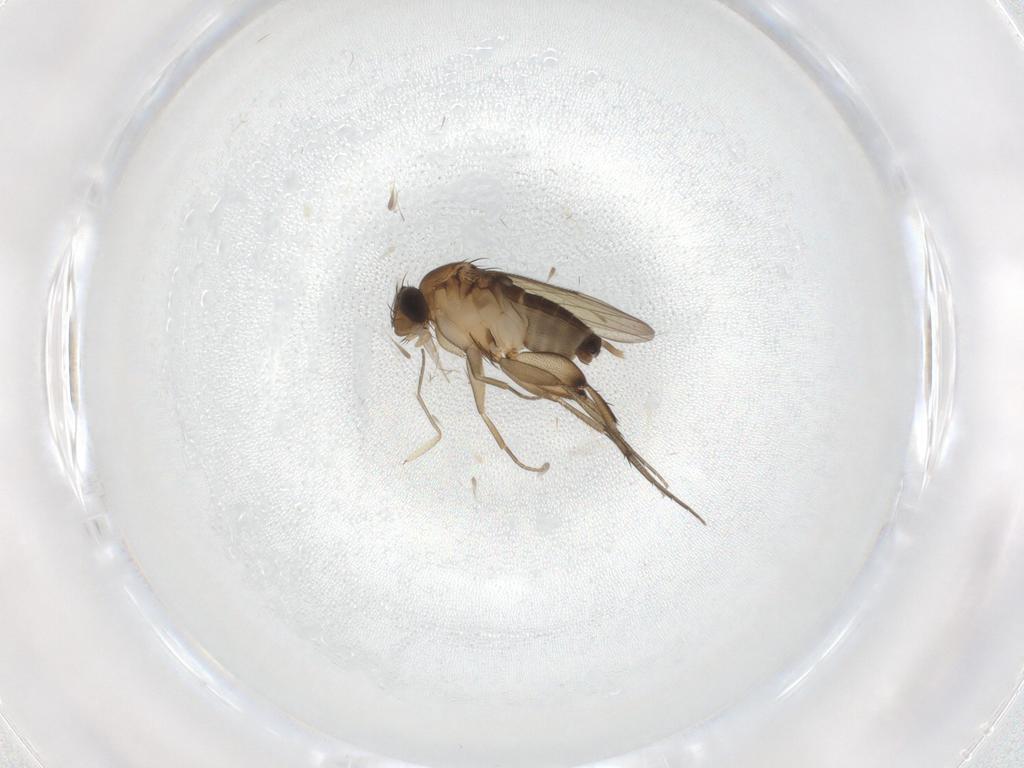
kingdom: Animalia
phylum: Arthropoda
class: Insecta
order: Diptera
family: Phoridae
